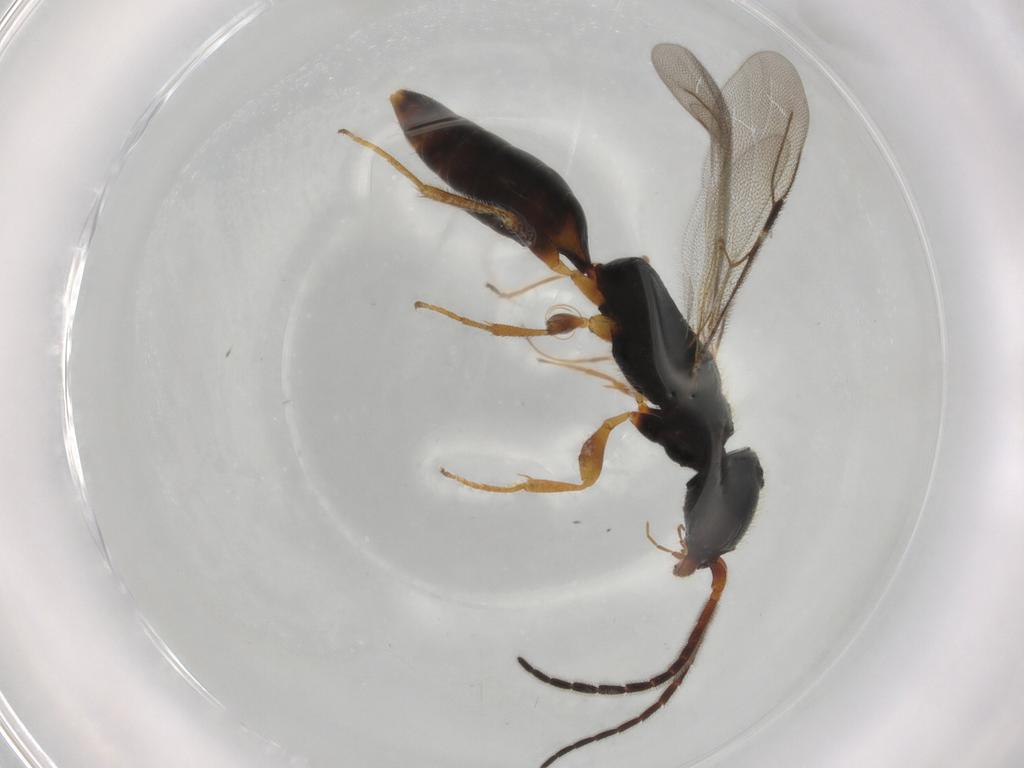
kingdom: Animalia
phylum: Arthropoda
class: Insecta
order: Hymenoptera
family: Bethylidae
